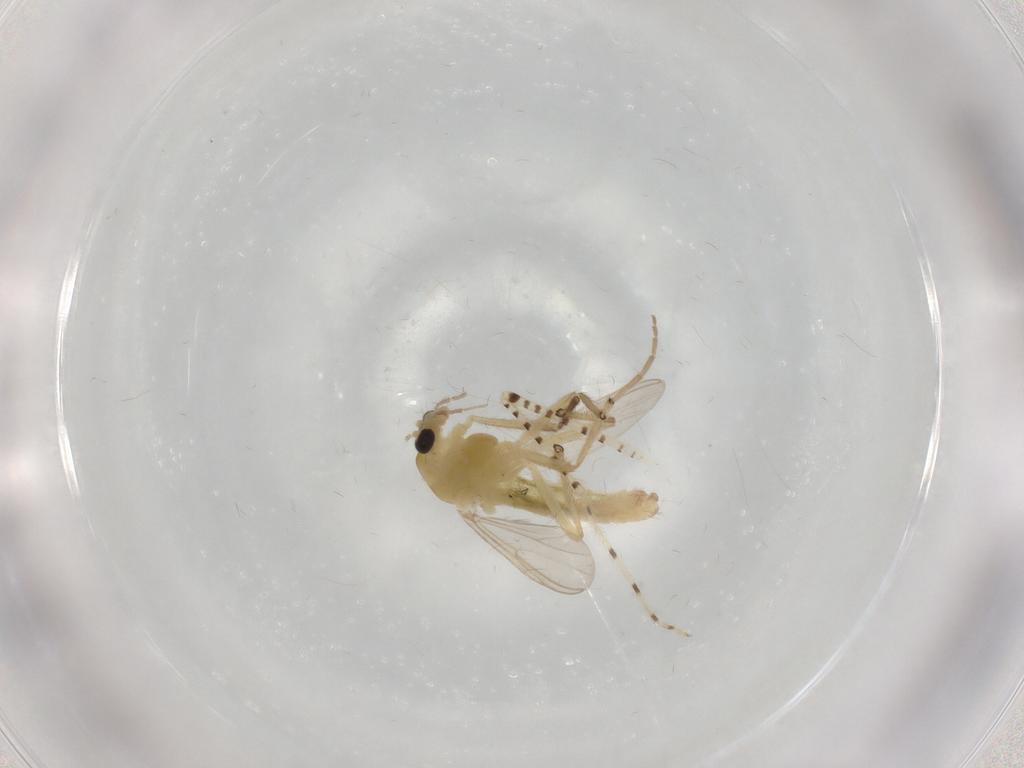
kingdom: Animalia
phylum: Arthropoda
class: Insecta
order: Diptera
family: Chironomidae
